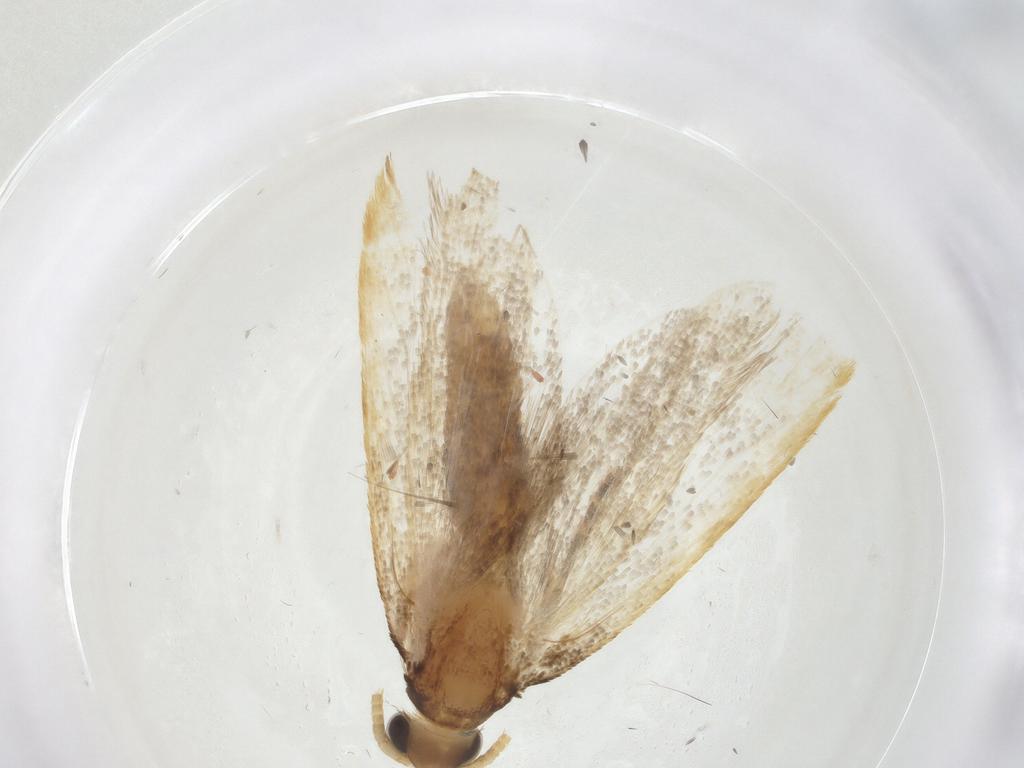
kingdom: Animalia
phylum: Arthropoda
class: Insecta
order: Lepidoptera
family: Lecithoceridae
